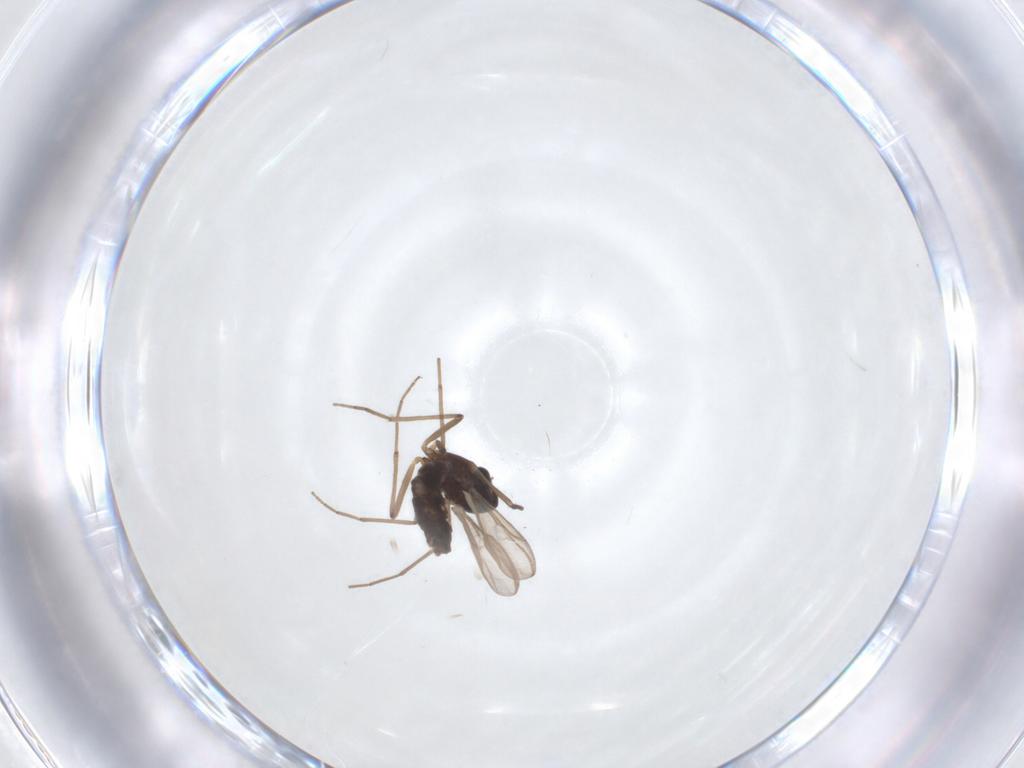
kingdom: Animalia
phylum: Arthropoda
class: Insecta
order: Diptera
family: Chironomidae
